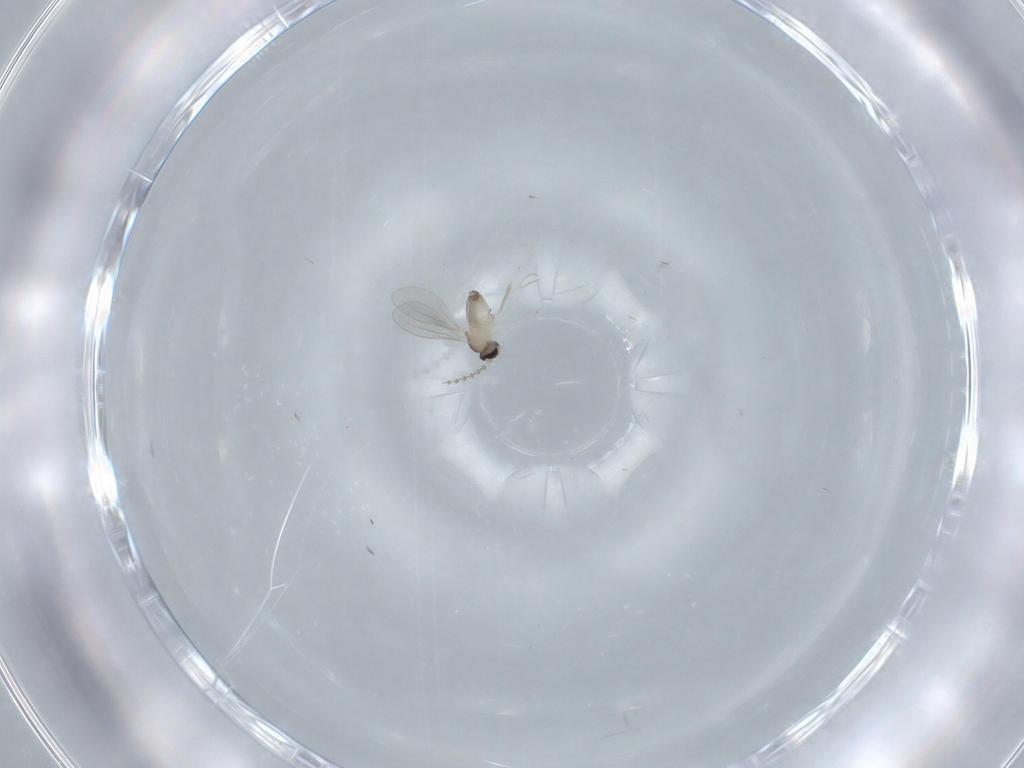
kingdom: Animalia
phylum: Arthropoda
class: Insecta
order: Diptera
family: Cecidomyiidae
